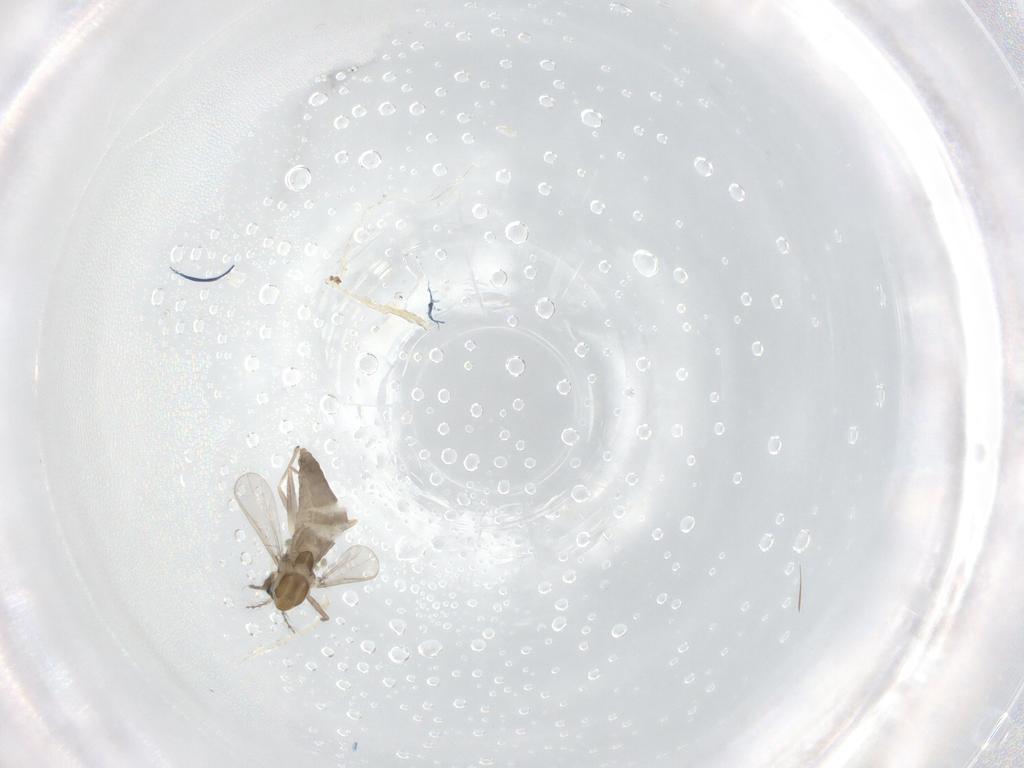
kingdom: Animalia
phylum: Arthropoda
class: Insecta
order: Diptera
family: Chironomidae
